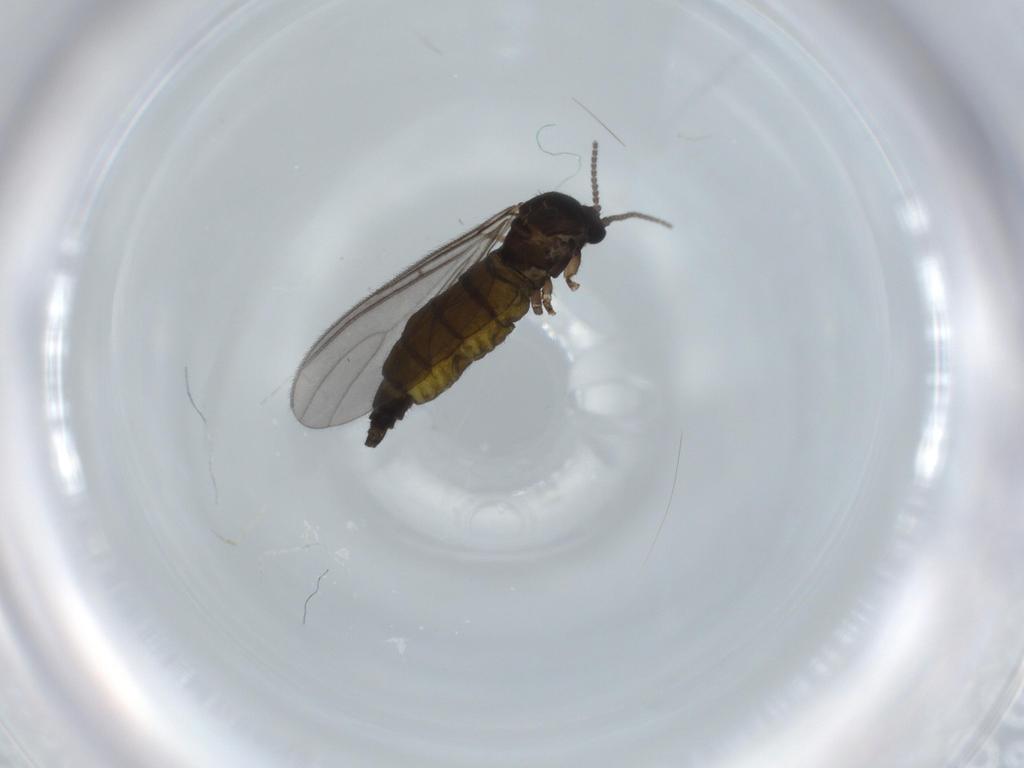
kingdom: Animalia
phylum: Arthropoda
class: Insecta
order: Diptera
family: Sciaridae
